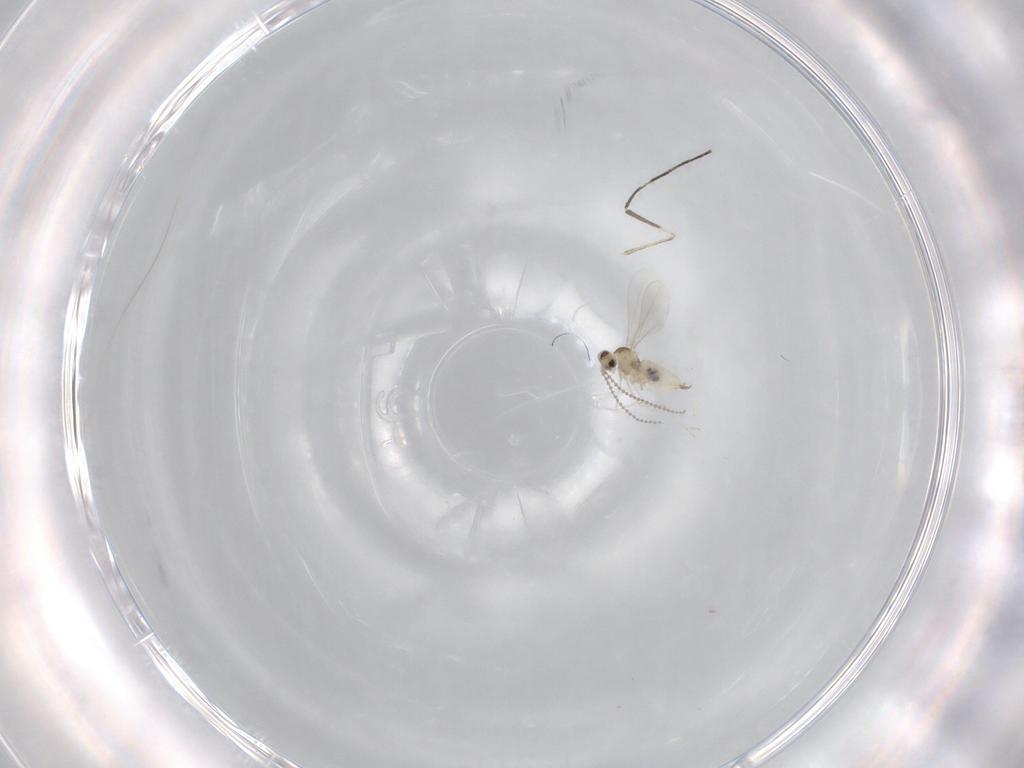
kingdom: Animalia
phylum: Arthropoda
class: Insecta
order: Diptera
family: Cecidomyiidae
